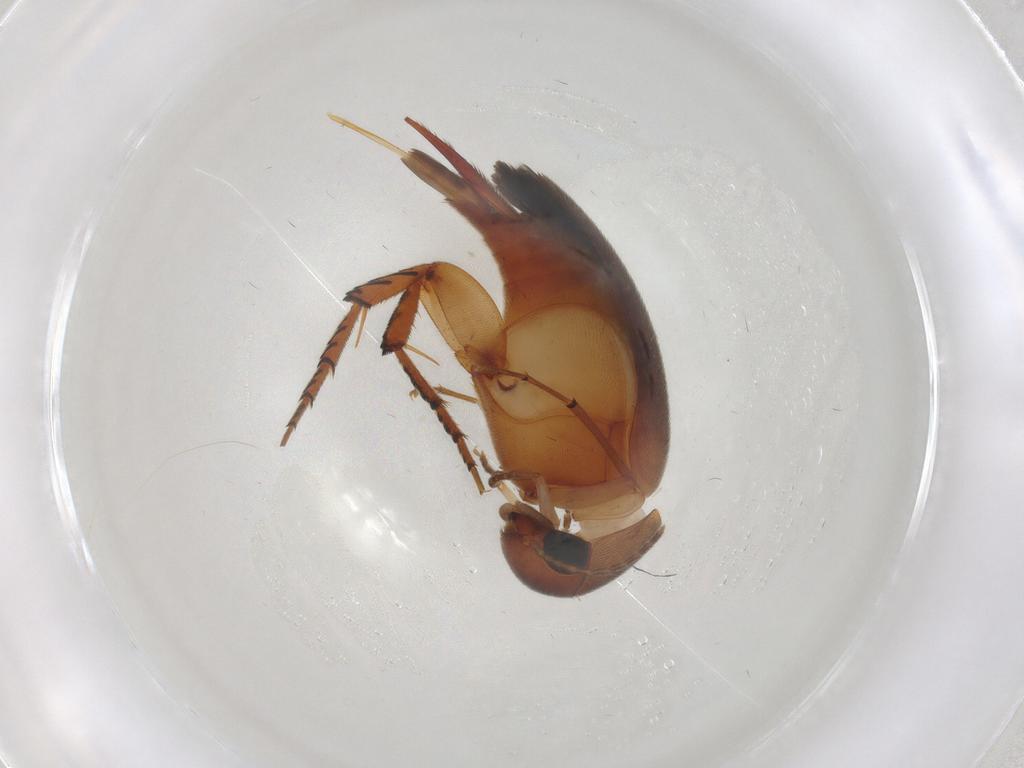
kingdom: Animalia
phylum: Arthropoda
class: Insecta
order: Coleoptera
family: Mordellidae
